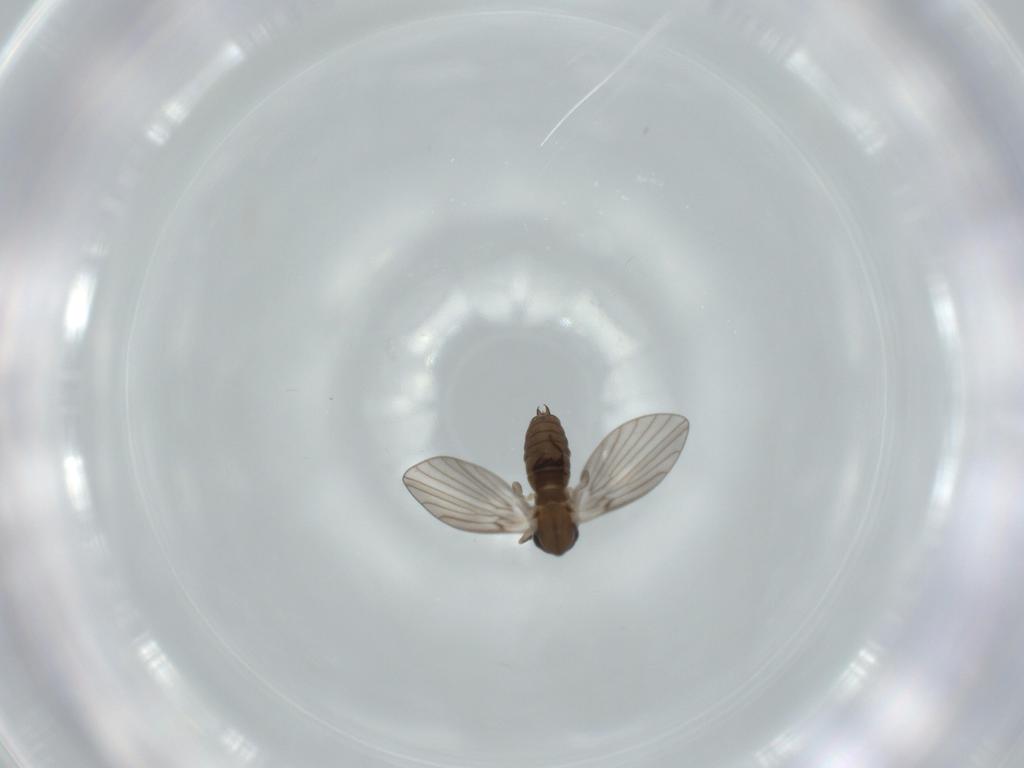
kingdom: Animalia
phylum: Arthropoda
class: Insecta
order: Diptera
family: Psychodidae
